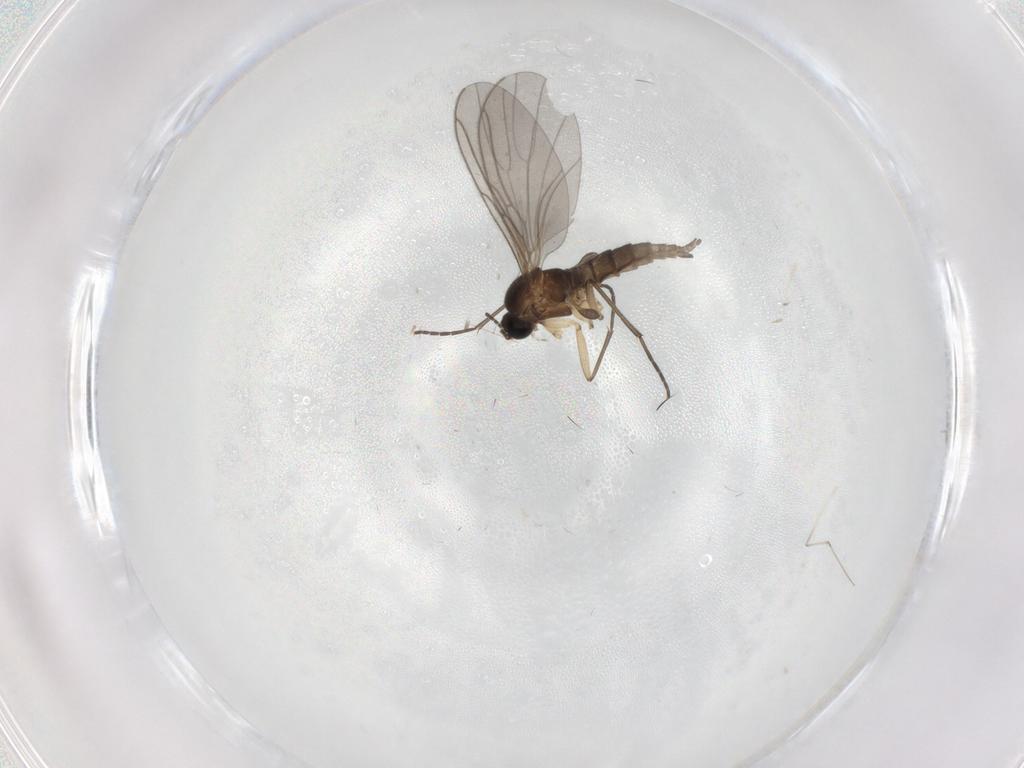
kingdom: Animalia
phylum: Arthropoda
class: Insecta
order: Diptera
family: Sciaridae
